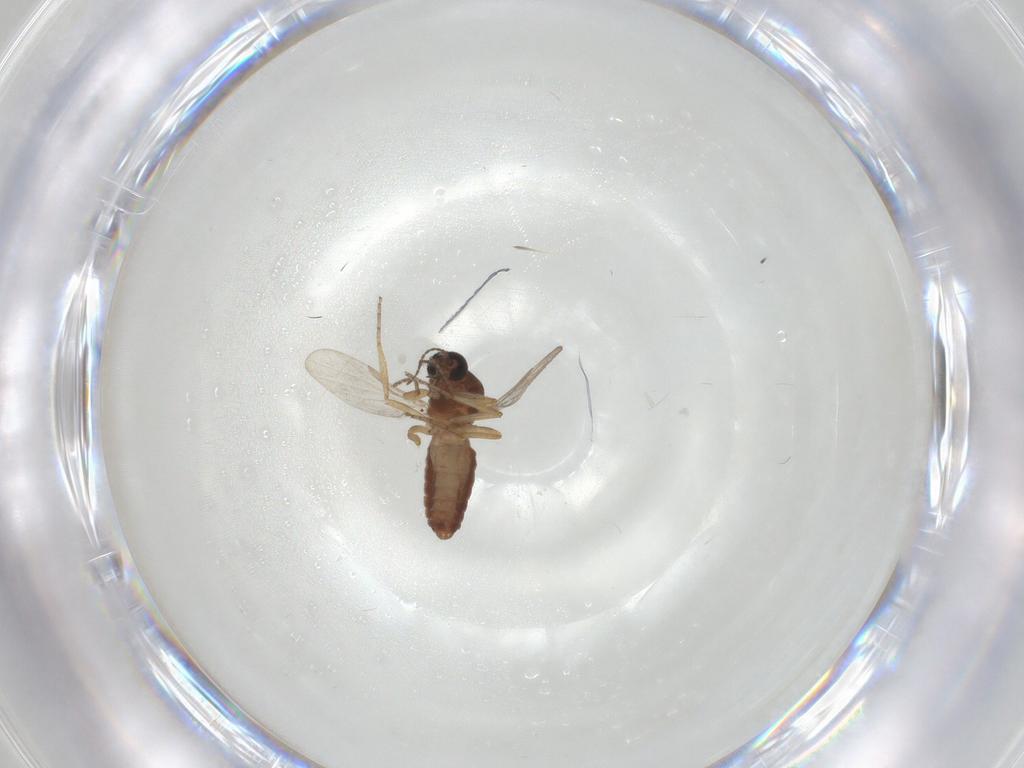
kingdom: Animalia
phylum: Arthropoda
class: Insecta
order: Diptera
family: Ceratopogonidae
